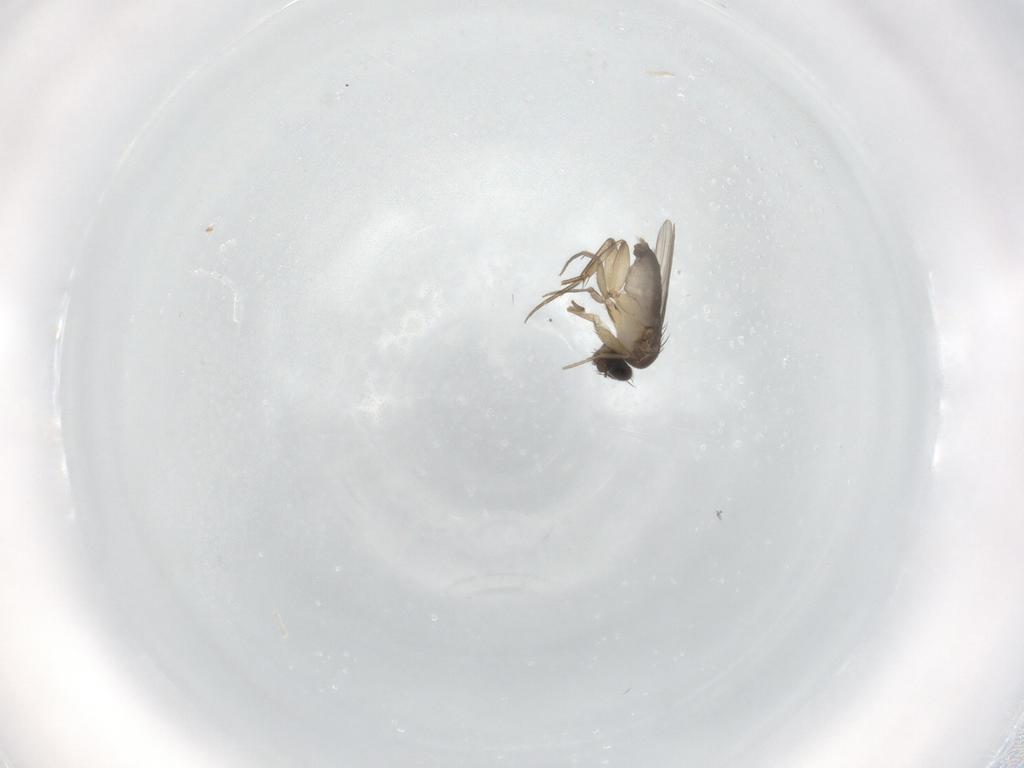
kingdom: Animalia
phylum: Arthropoda
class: Insecta
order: Diptera
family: Phoridae
